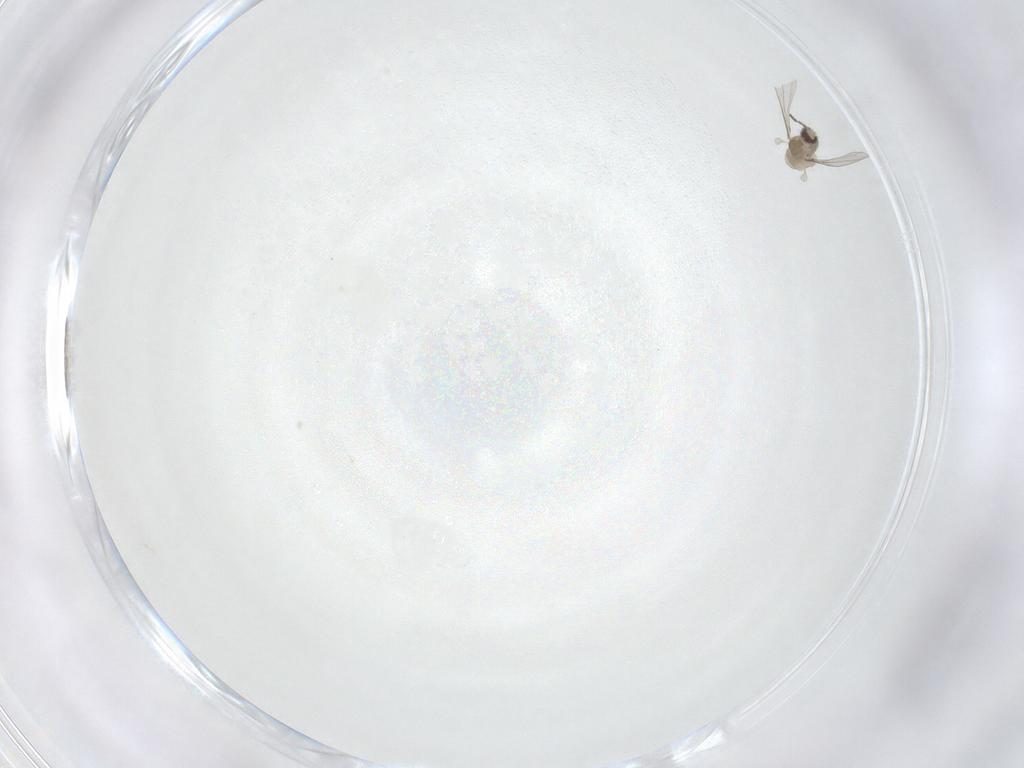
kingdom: Animalia
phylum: Arthropoda
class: Insecta
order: Diptera
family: Cecidomyiidae
